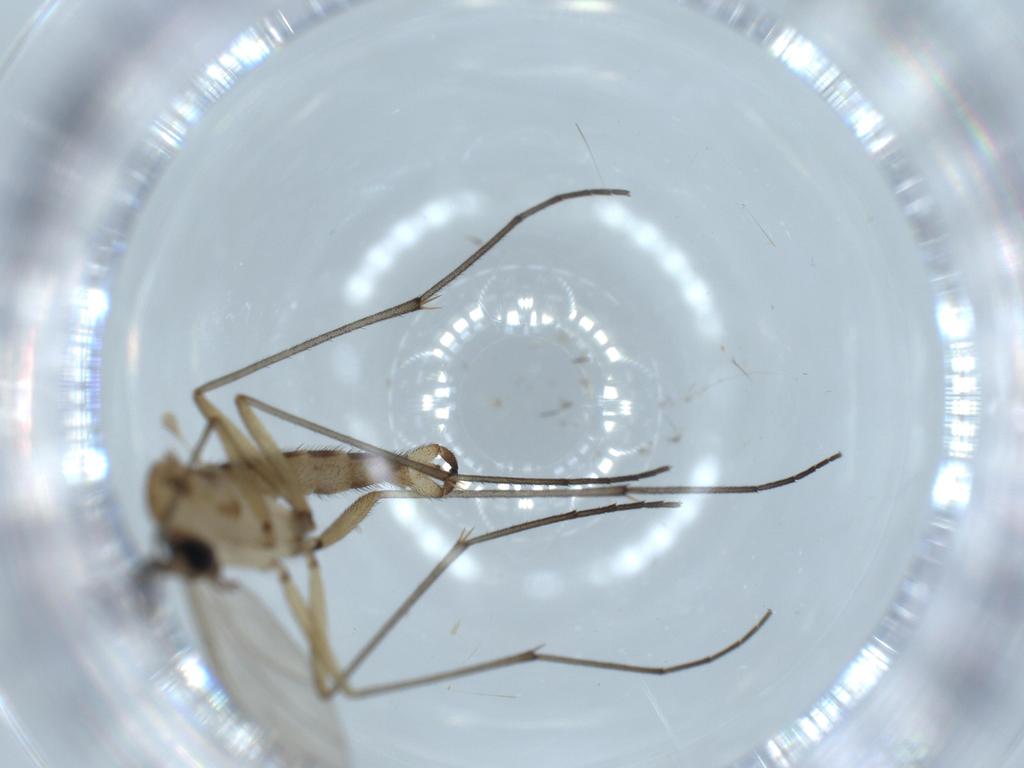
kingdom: Animalia
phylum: Arthropoda
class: Insecta
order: Diptera
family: Sciaridae
